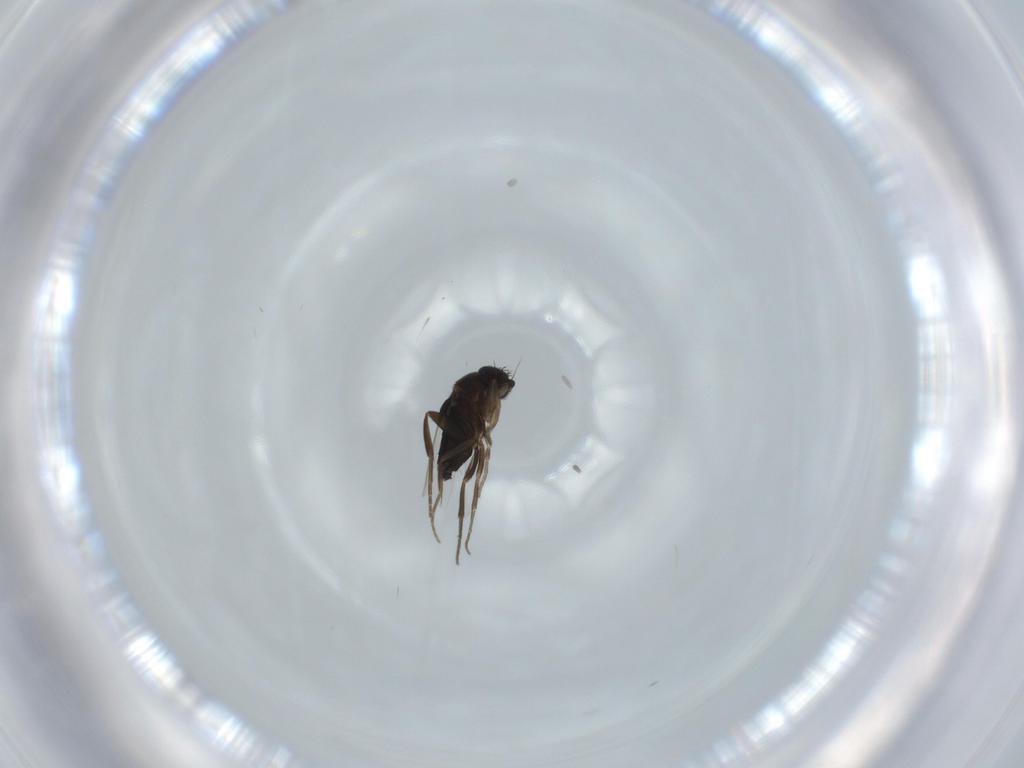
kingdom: Animalia
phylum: Arthropoda
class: Insecta
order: Diptera
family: Phoridae
